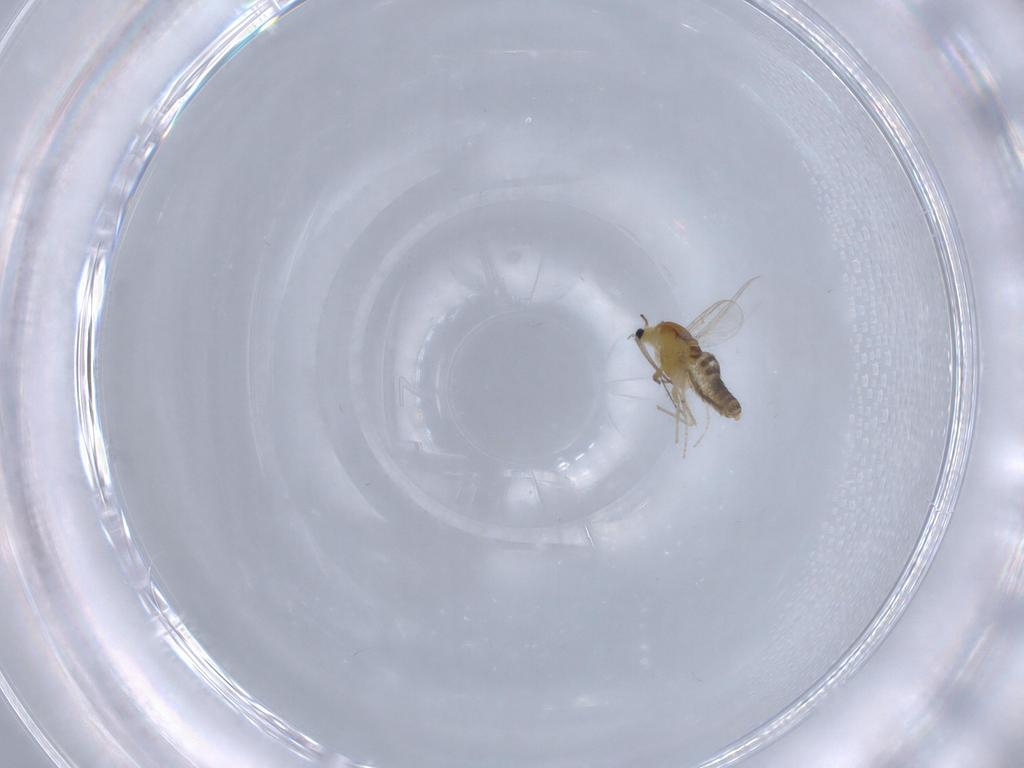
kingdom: Animalia
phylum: Arthropoda
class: Insecta
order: Diptera
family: Chironomidae
